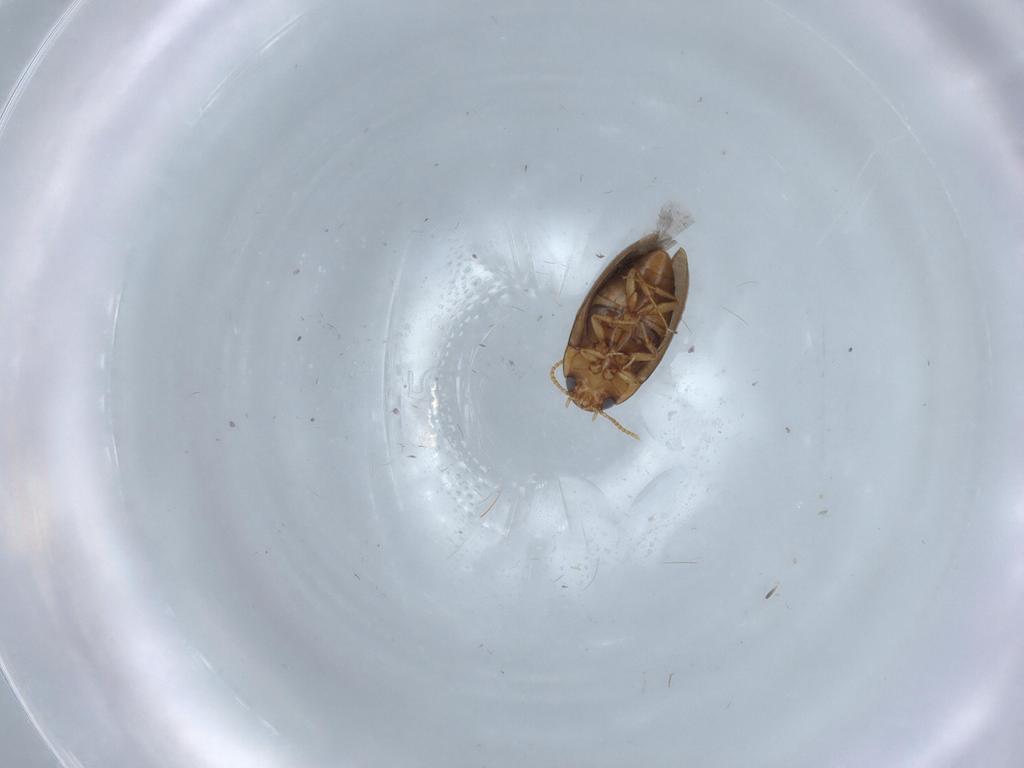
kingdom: Animalia
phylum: Arthropoda
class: Insecta
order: Coleoptera
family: Noteridae
